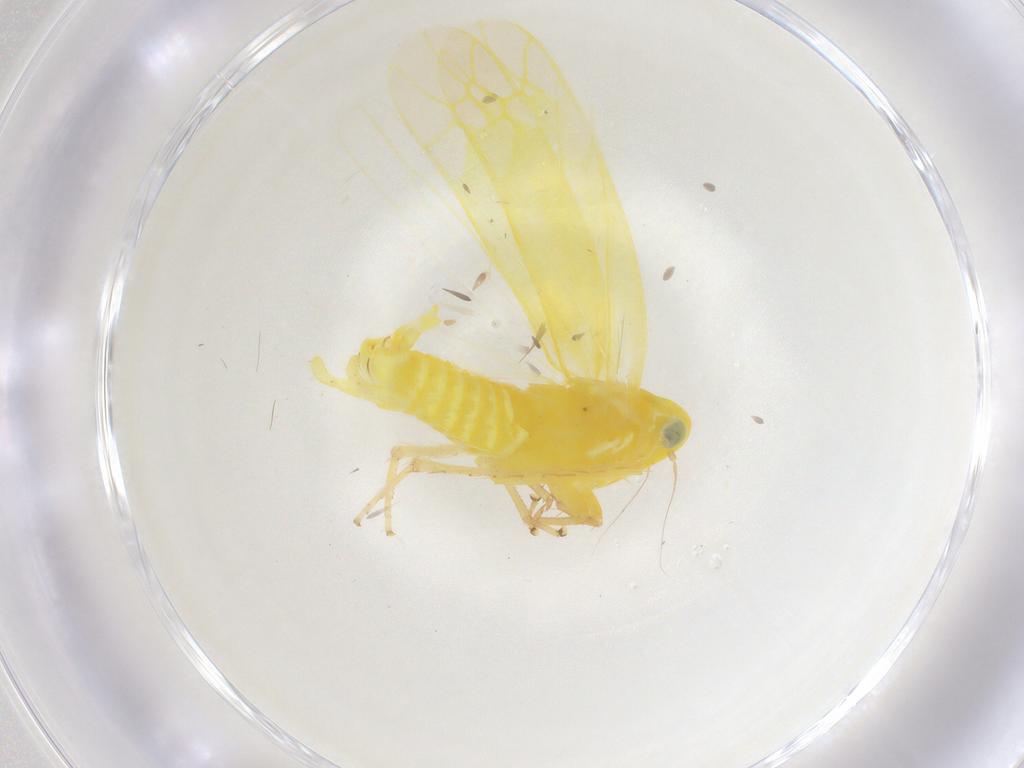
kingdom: Animalia
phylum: Arthropoda
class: Insecta
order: Hemiptera
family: Cicadellidae
